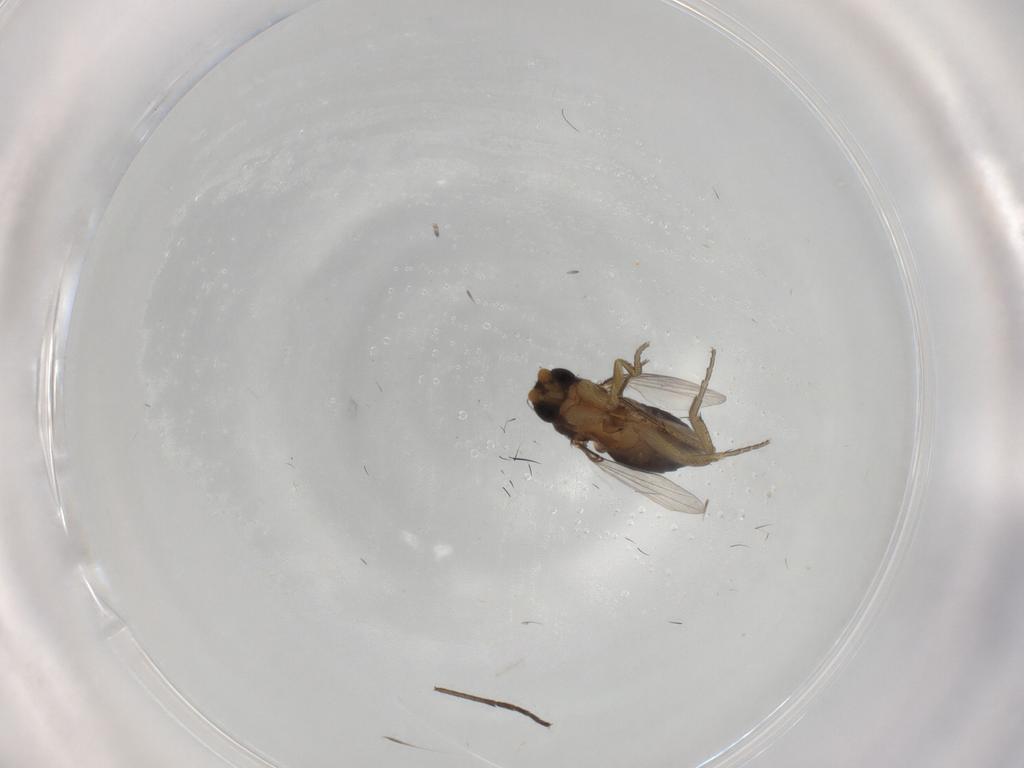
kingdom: Animalia
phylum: Arthropoda
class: Insecta
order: Diptera
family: Phoridae
